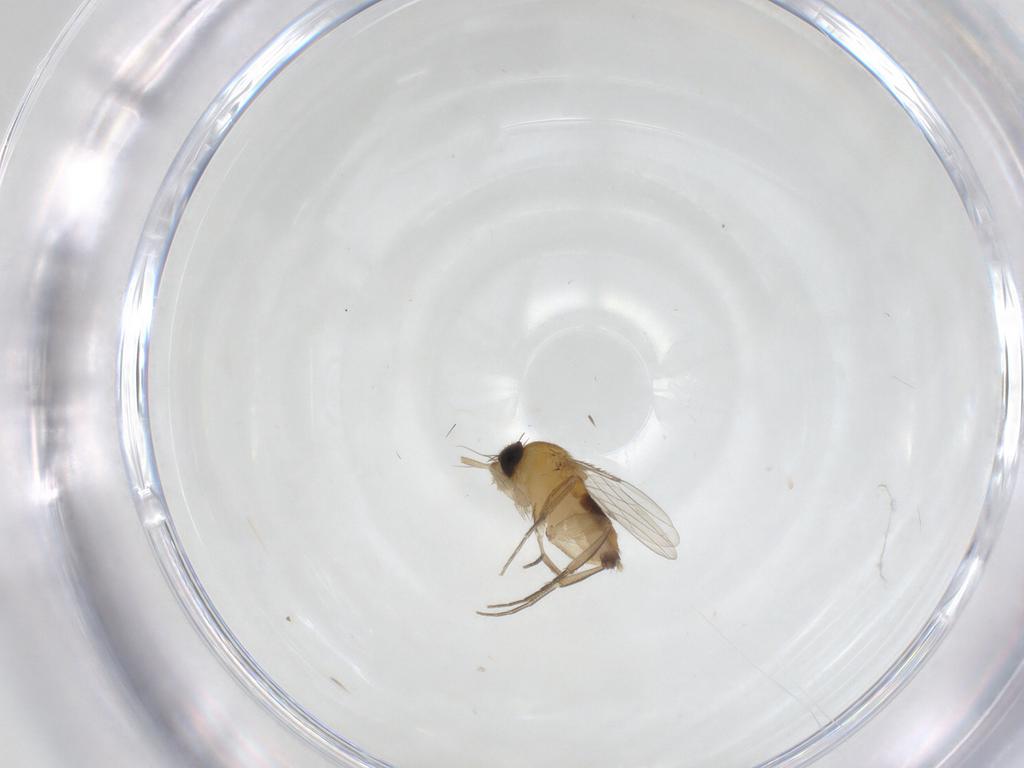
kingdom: Animalia
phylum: Arthropoda
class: Insecta
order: Diptera
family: Phoridae
